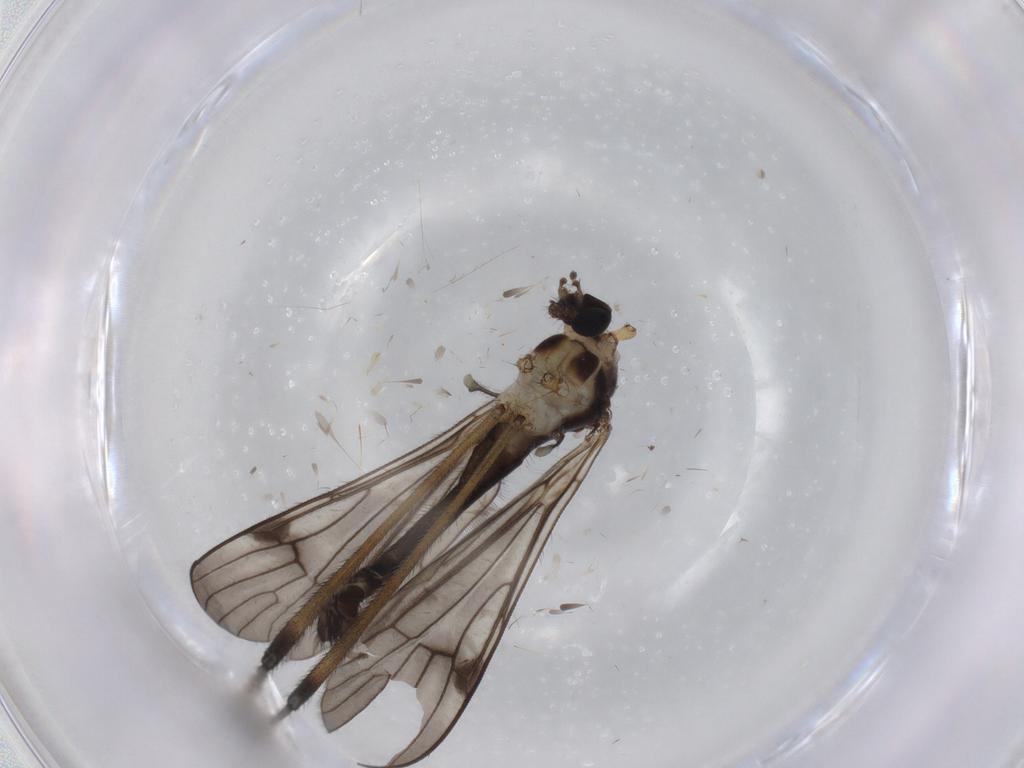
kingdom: Animalia
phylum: Arthropoda
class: Insecta
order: Diptera
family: Limoniidae
